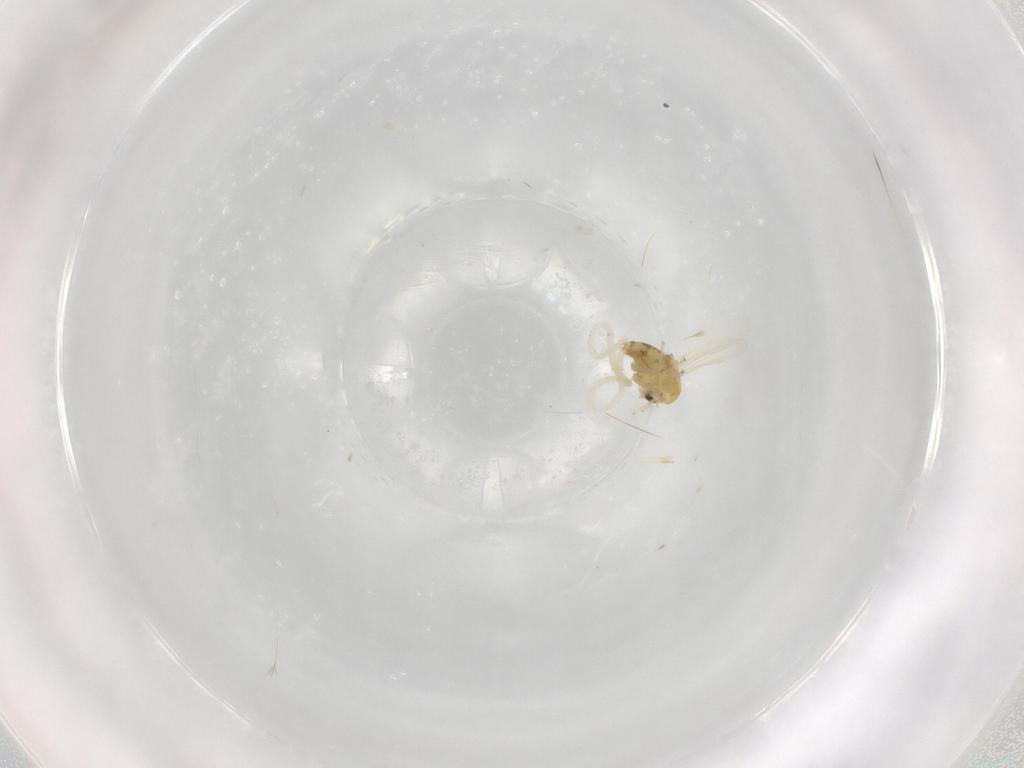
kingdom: Animalia
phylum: Arthropoda
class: Insecta
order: Diptera
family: Chironomidae
